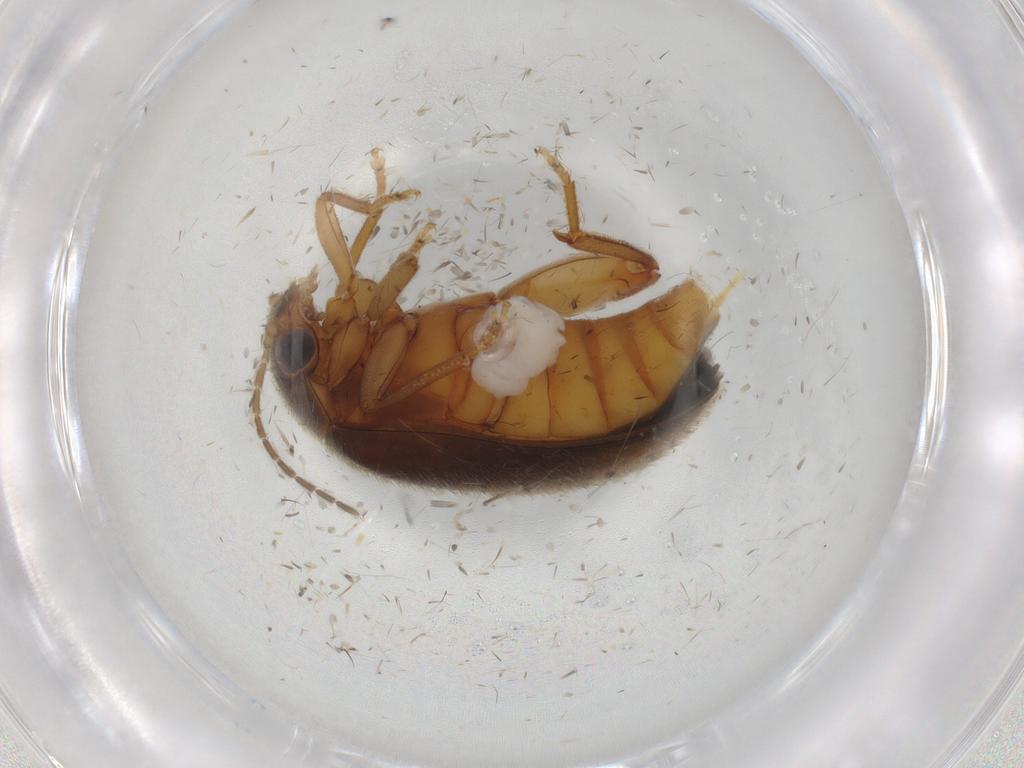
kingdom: Animalia
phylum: Arthropoda
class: Insecta
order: Coleoptera
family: Scirtidae
